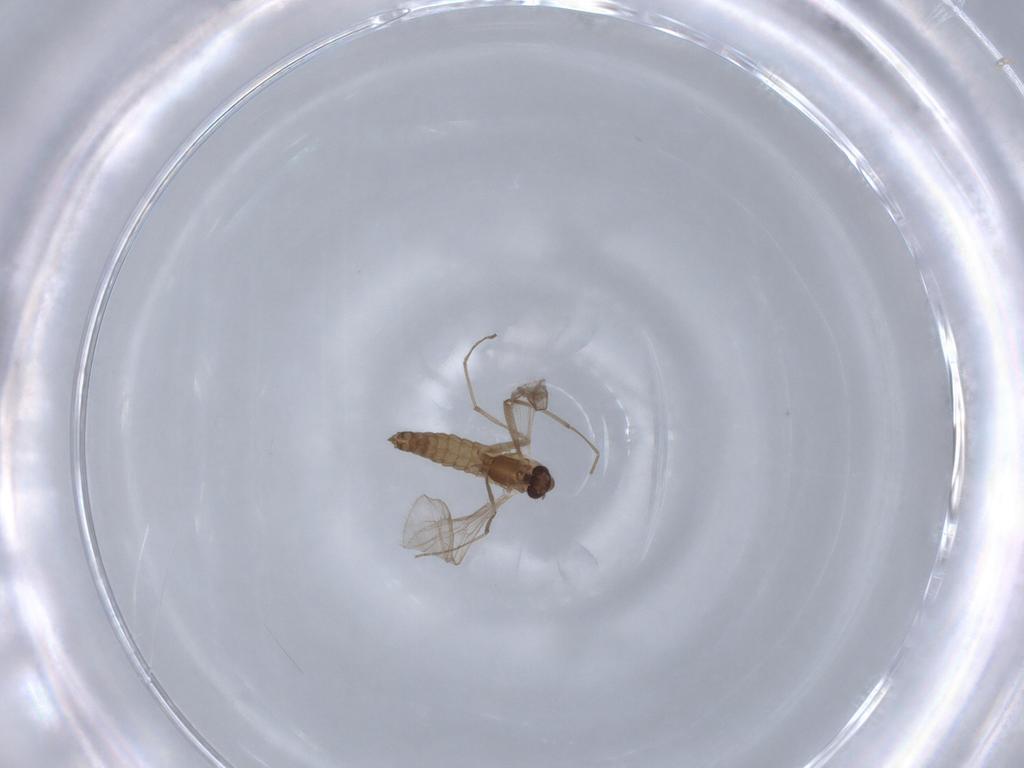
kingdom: Animalia
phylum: Arthropoda
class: Insecta
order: Diptera
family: Chironomidae
